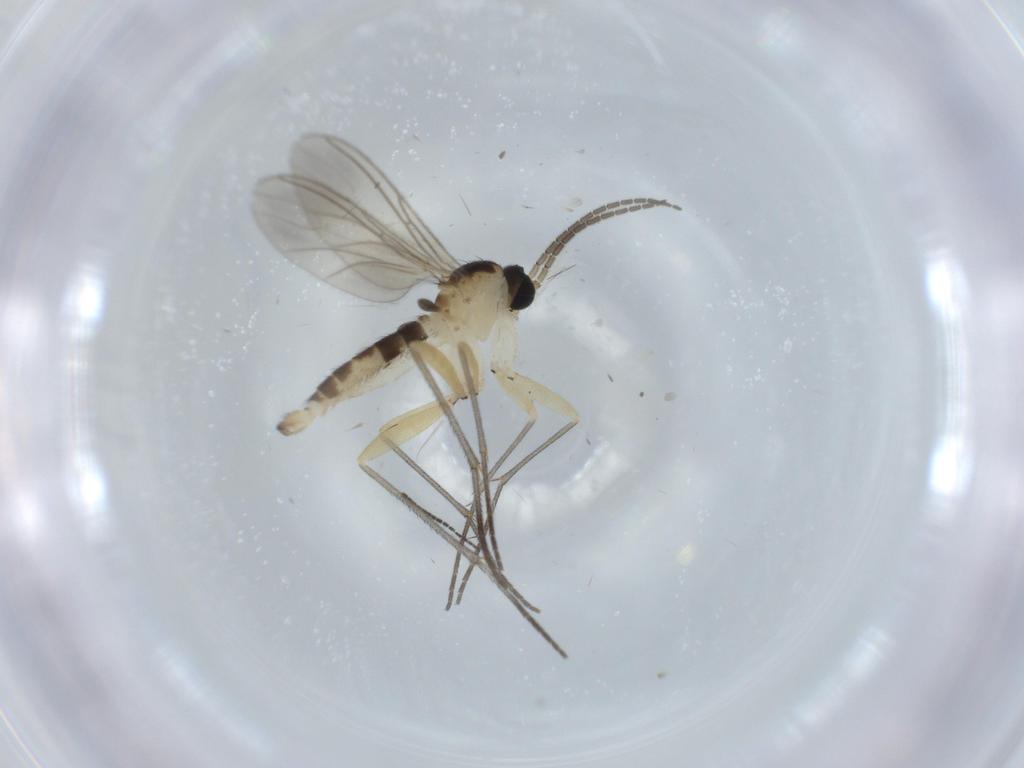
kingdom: Animalia
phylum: Arthropoda
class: Insecta
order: Diptera
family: Sciaridae
